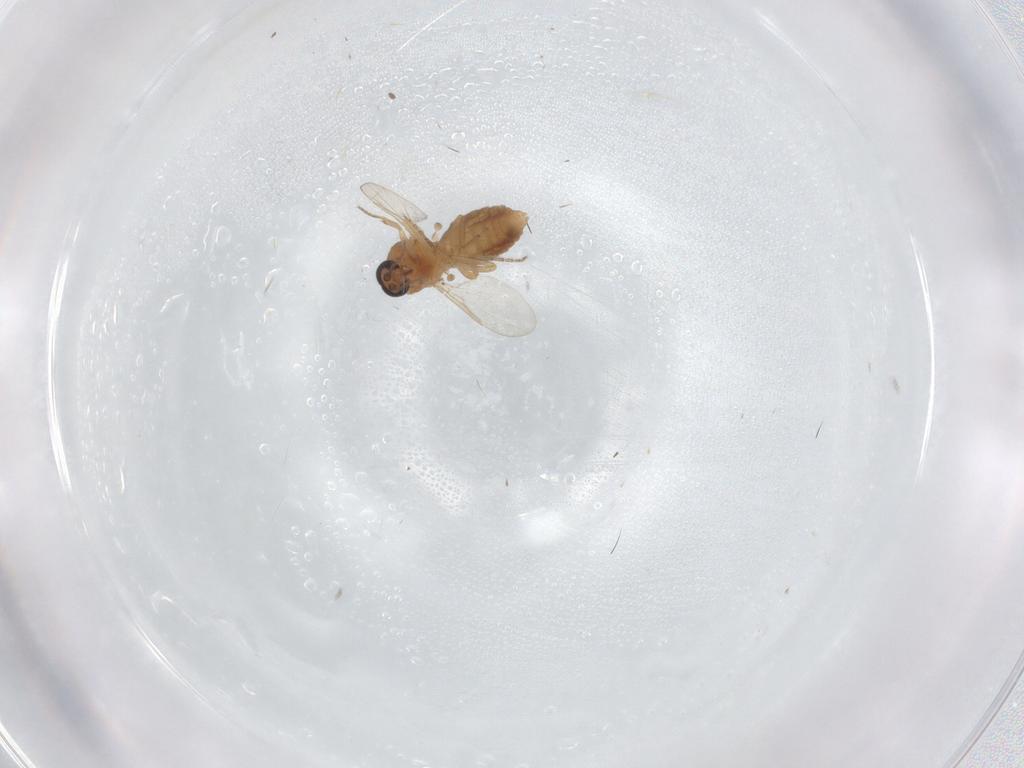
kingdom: Animalia
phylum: Arthropoda
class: Insecta
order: Diptera
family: Ceratopogonidae
